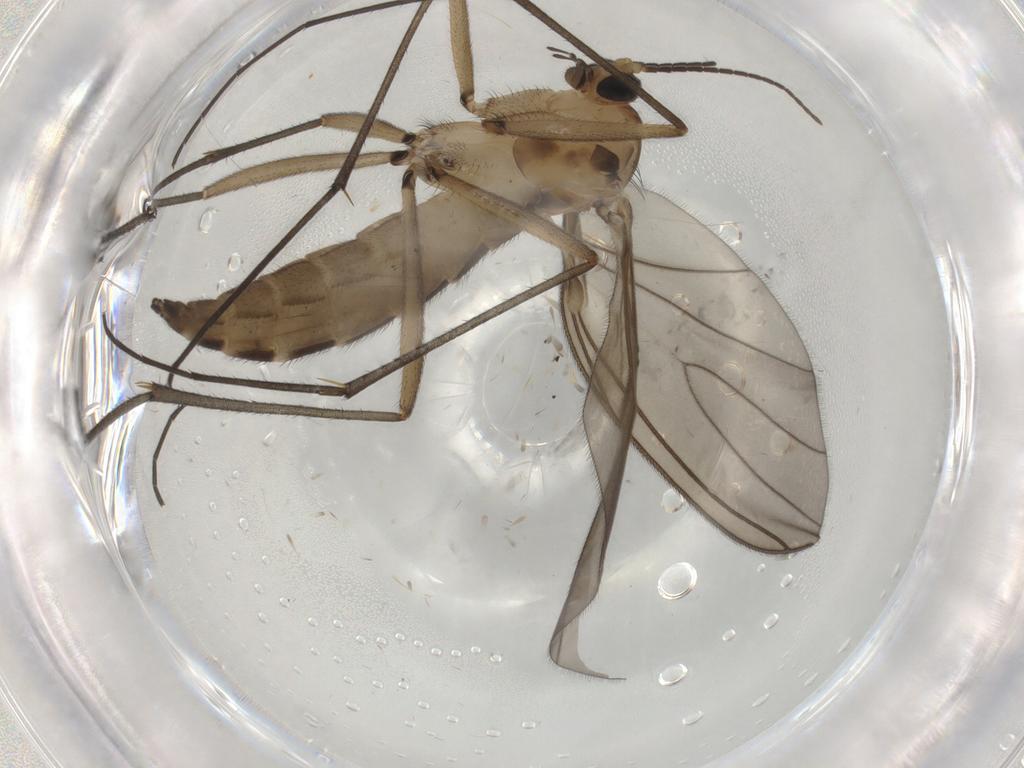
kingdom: Animalia
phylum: Arthropoda
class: Insecta
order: Diptera
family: Sciaridae
